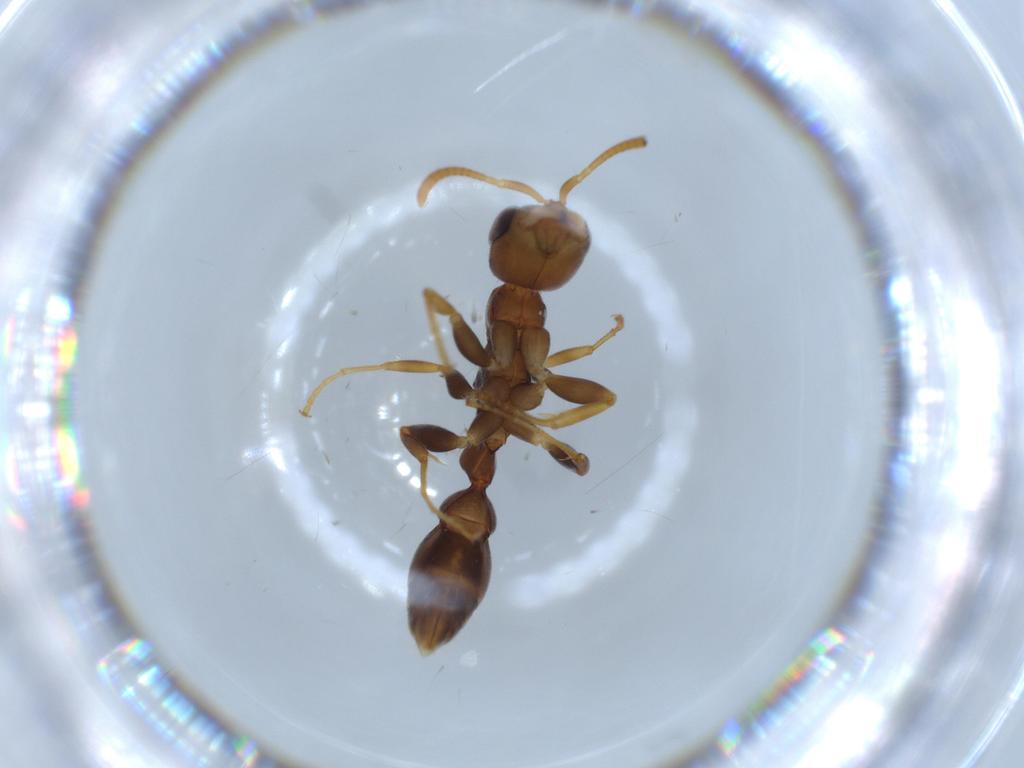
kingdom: Animalia
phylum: Arthropoda
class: Insecta
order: Hymenoptera
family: Formicidae
